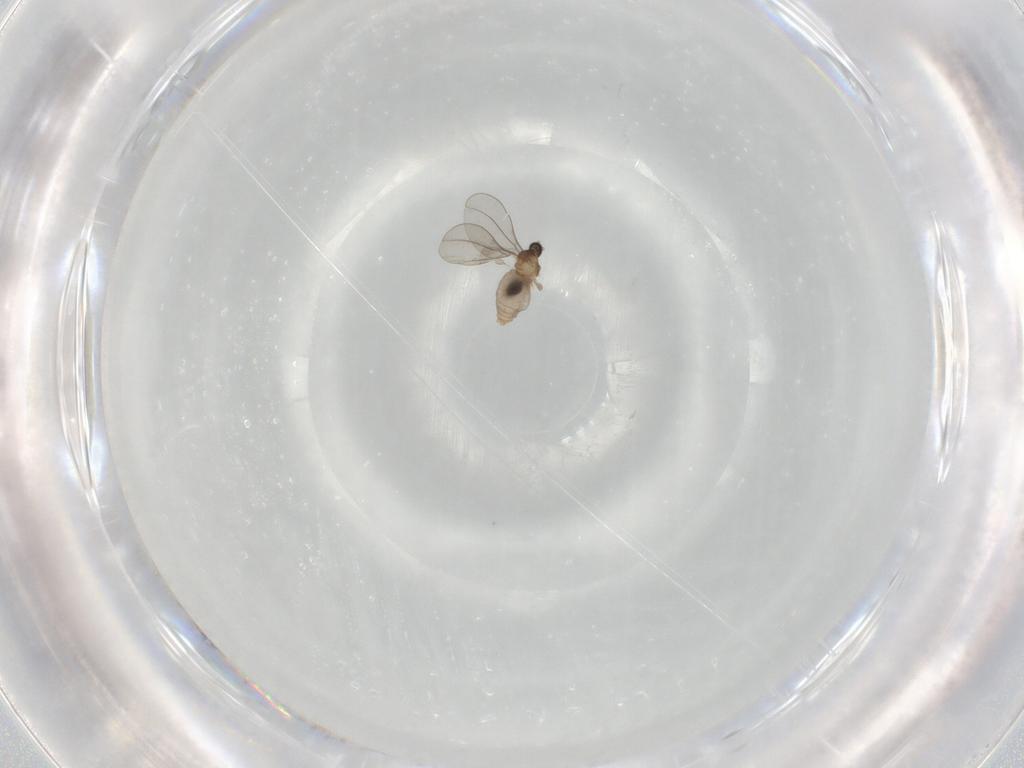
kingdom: Animalia
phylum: Arthropoda
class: Insecta
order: Diptera
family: Cecidomyiidae
